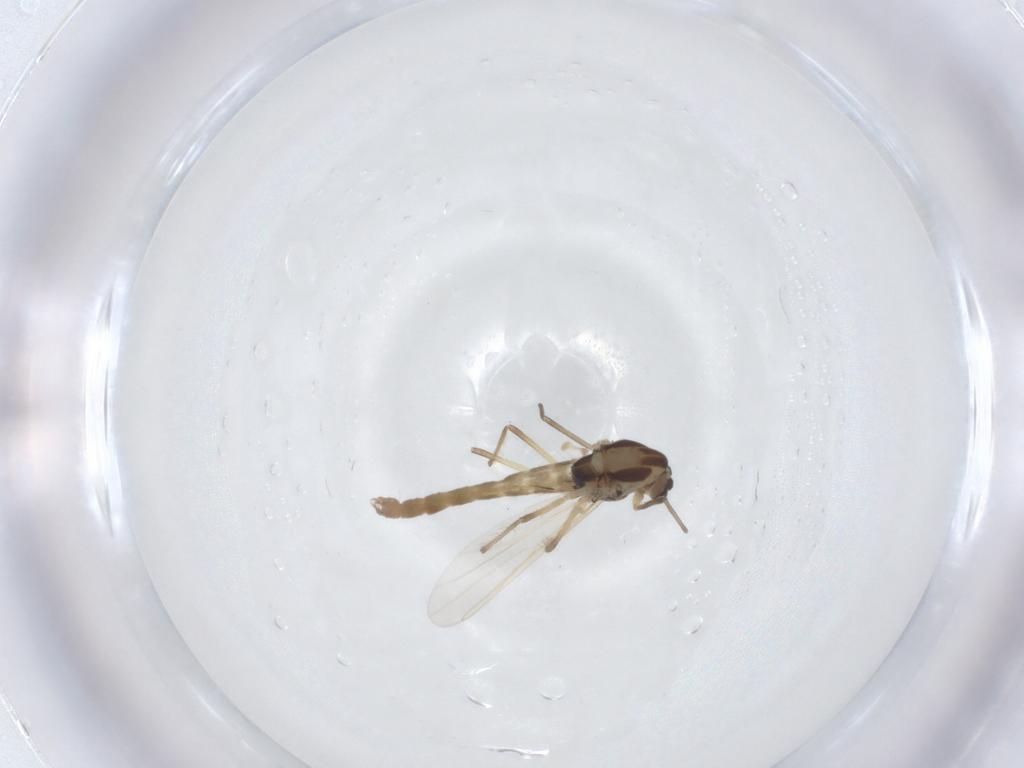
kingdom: Animalia
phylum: Arthropoda
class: Insecta
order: Diptera
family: Chironomidae
